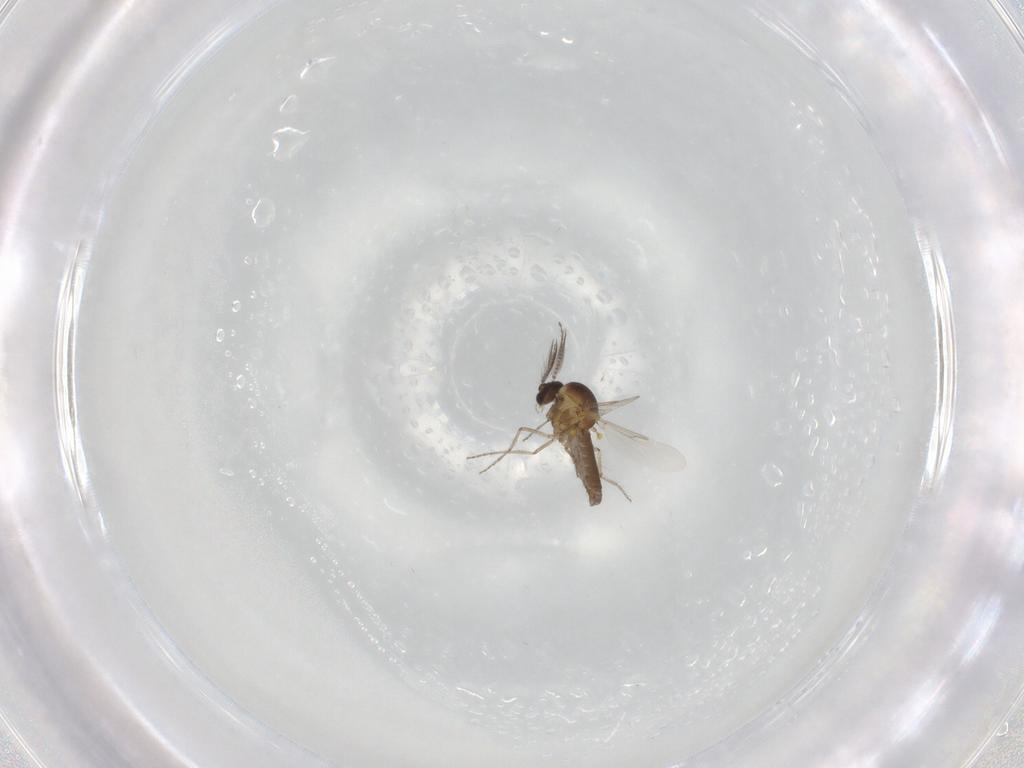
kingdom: Animalia
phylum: Arthropoda
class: Insecta
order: Diptera
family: Ceratopogonidae
